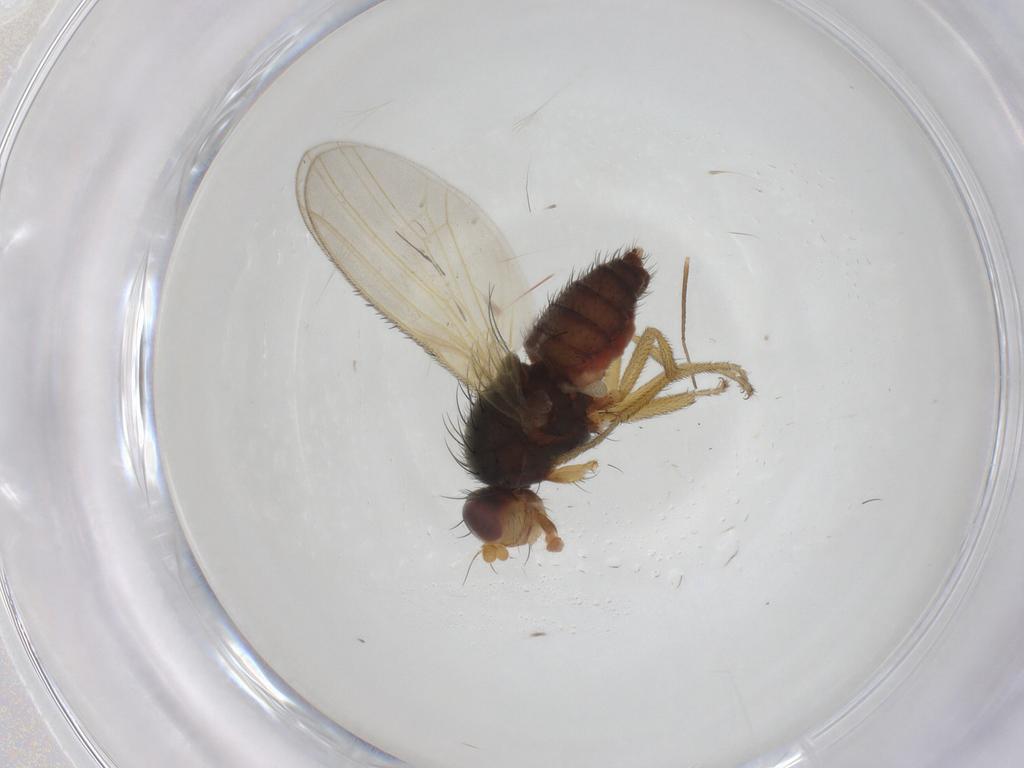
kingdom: Animalia
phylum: Arthropoda
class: Insecta
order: Diptera
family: Heleomyzidae
